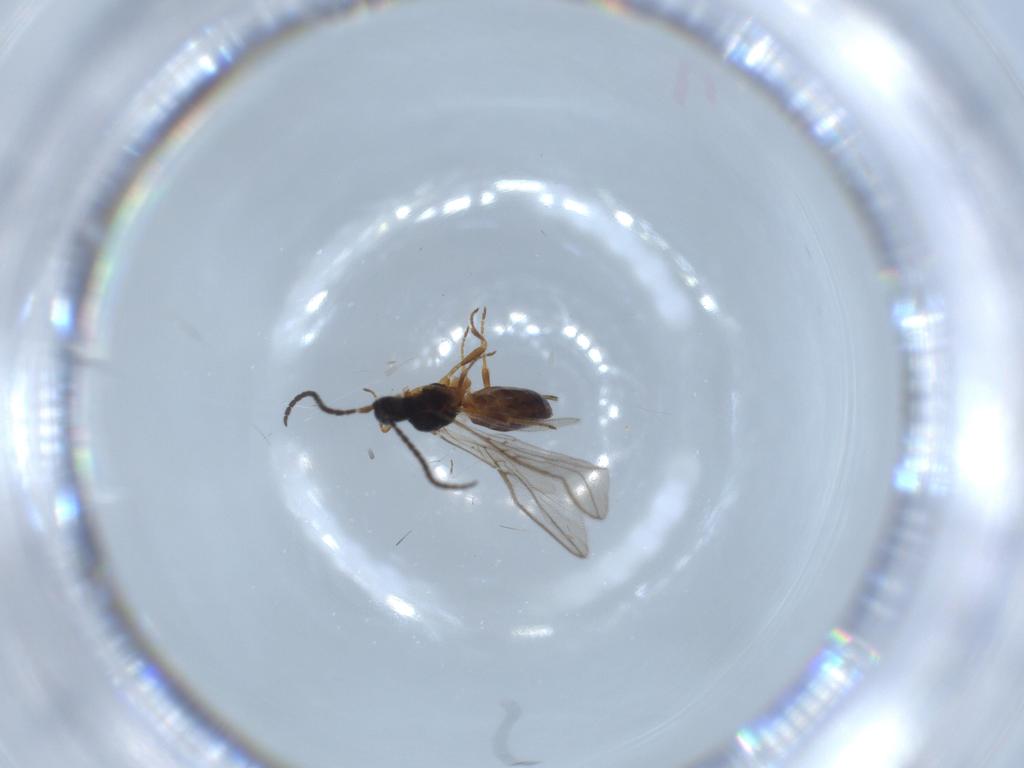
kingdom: Animalia
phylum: Arthropoda
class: Insecta
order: Hymenoptera
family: Braconidae
